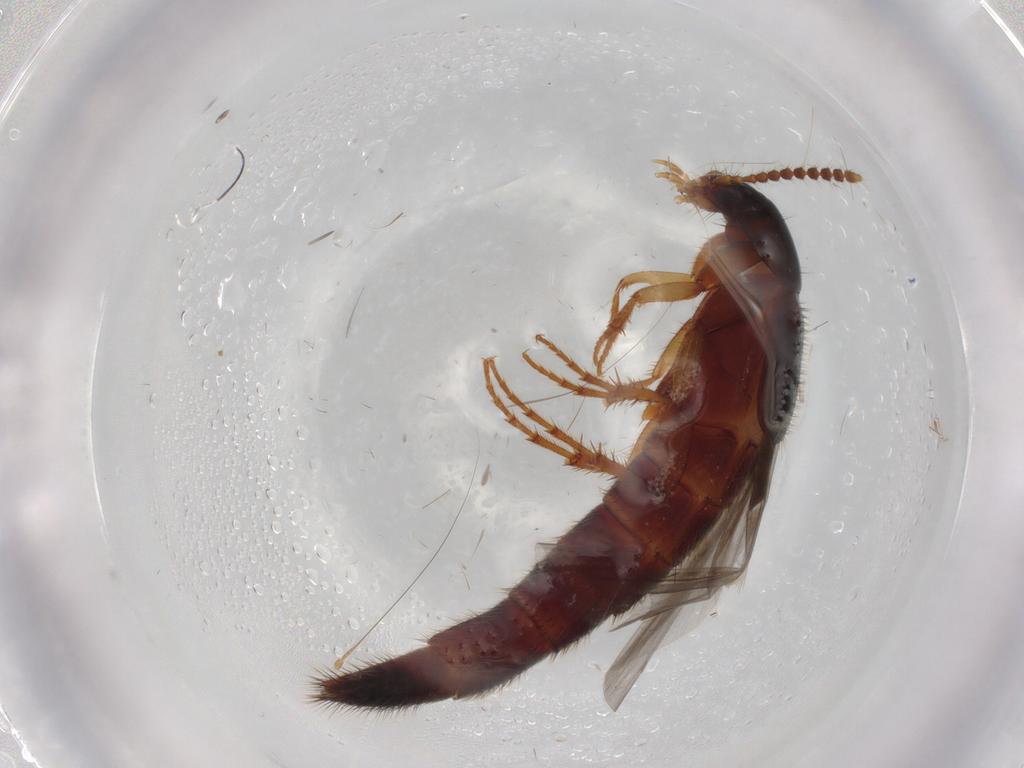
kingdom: Animalia
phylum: Arthropoda
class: Insecta
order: Coleoptera
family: Staphylinidae
